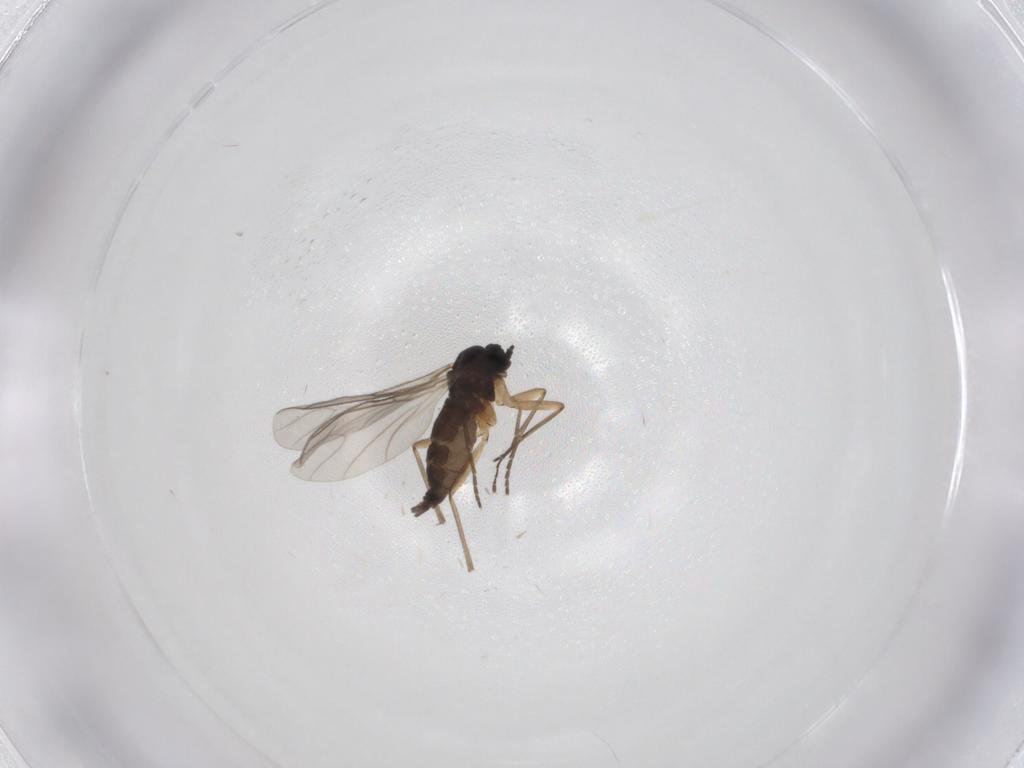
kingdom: Animalia
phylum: Arthropoda
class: Insecta
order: Diptera
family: Sciaridae
